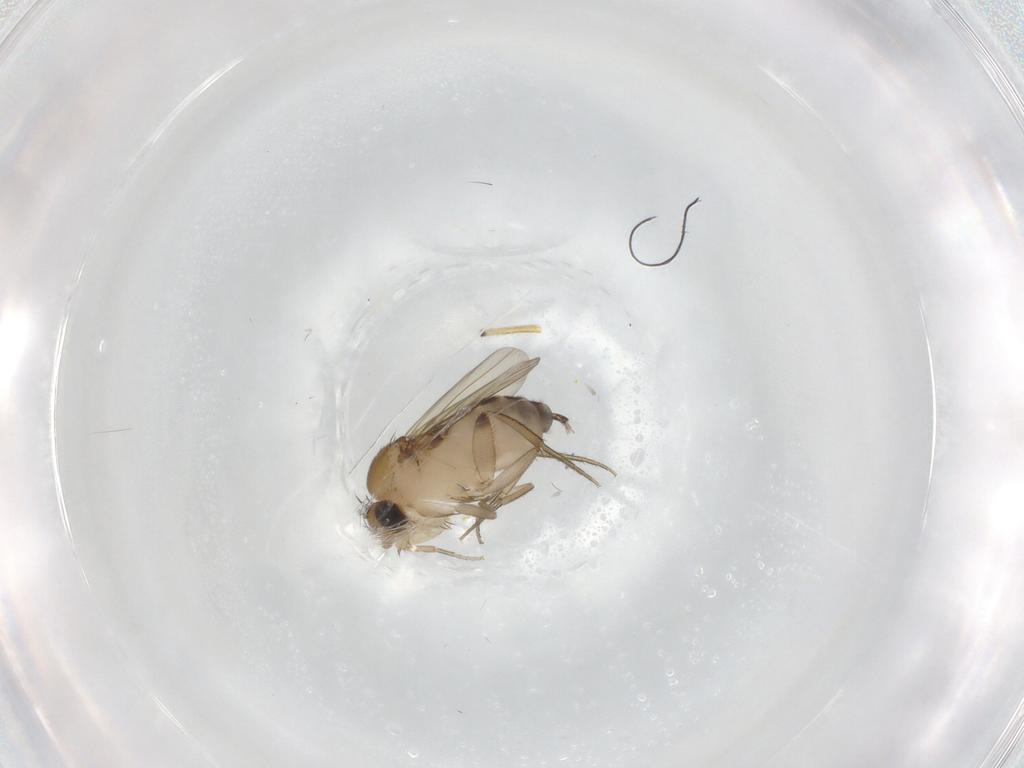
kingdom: Animalia
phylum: Arthropoda
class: Insecta
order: Diptera
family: Phoridae
